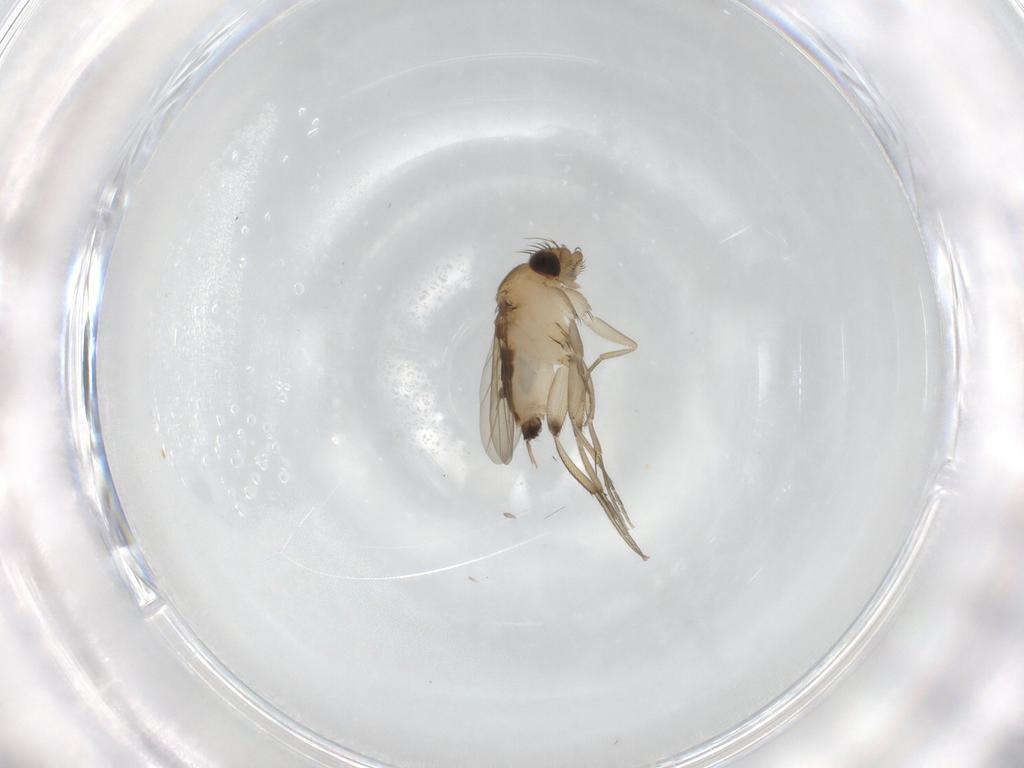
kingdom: Animalia
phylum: Arthropoda
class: Insecta
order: Diptera
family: Phoridae
